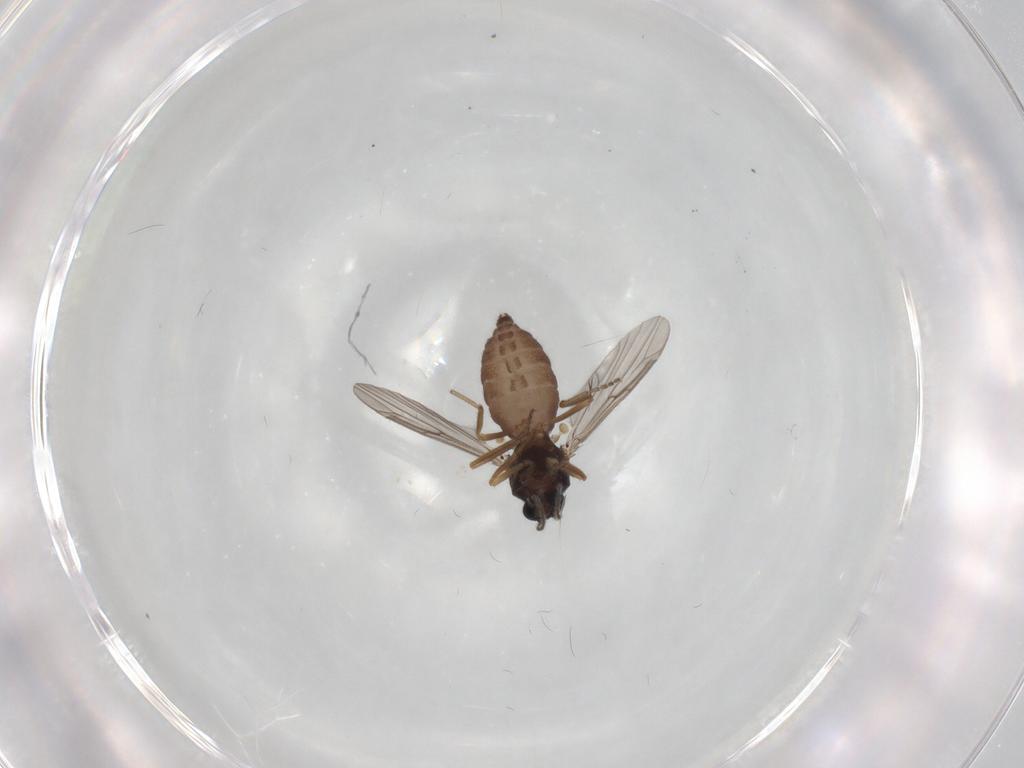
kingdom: Animalia
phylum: Arthropoda
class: Insecta
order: Diptera
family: Ceratopogonidae
